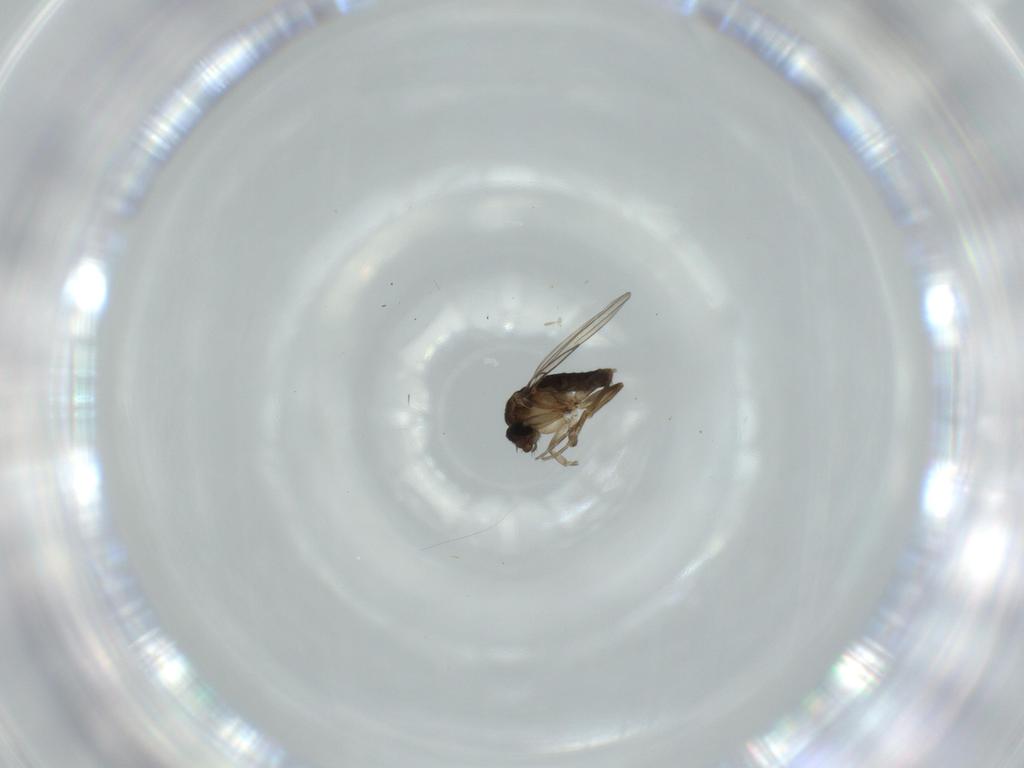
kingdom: Animalia
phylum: Arthropoda
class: Insecta
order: Diptera
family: Phoridae
